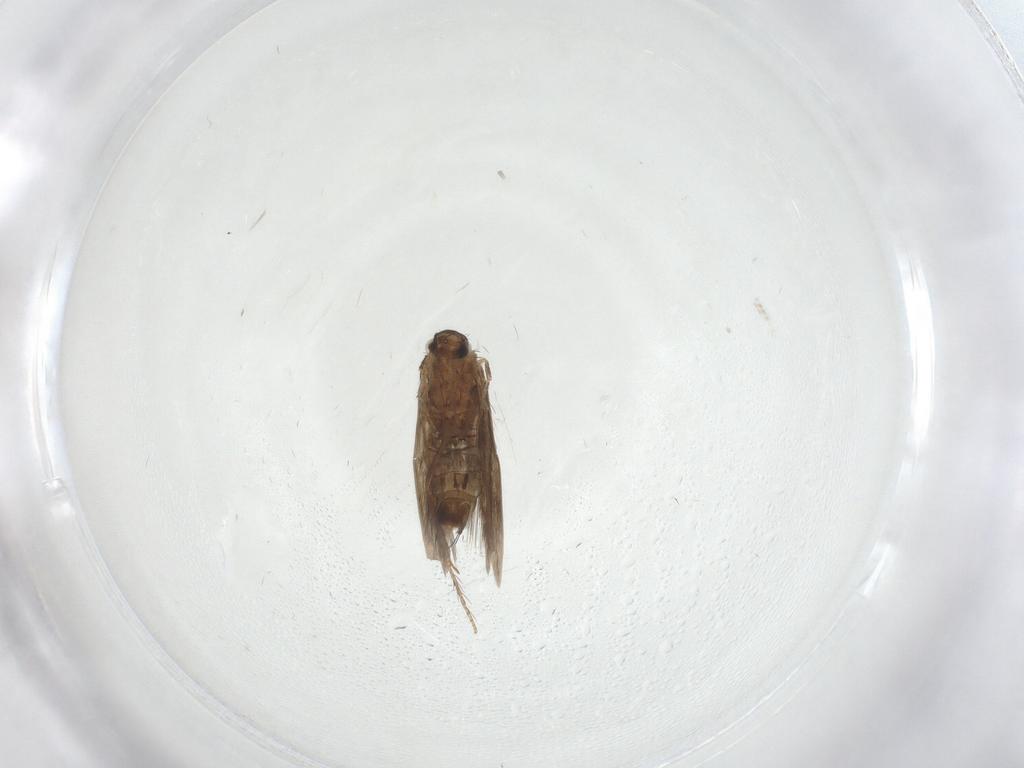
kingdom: Animalia
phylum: Arthropoda
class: Insecta
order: Trichoptera
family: Hydroptilidae
